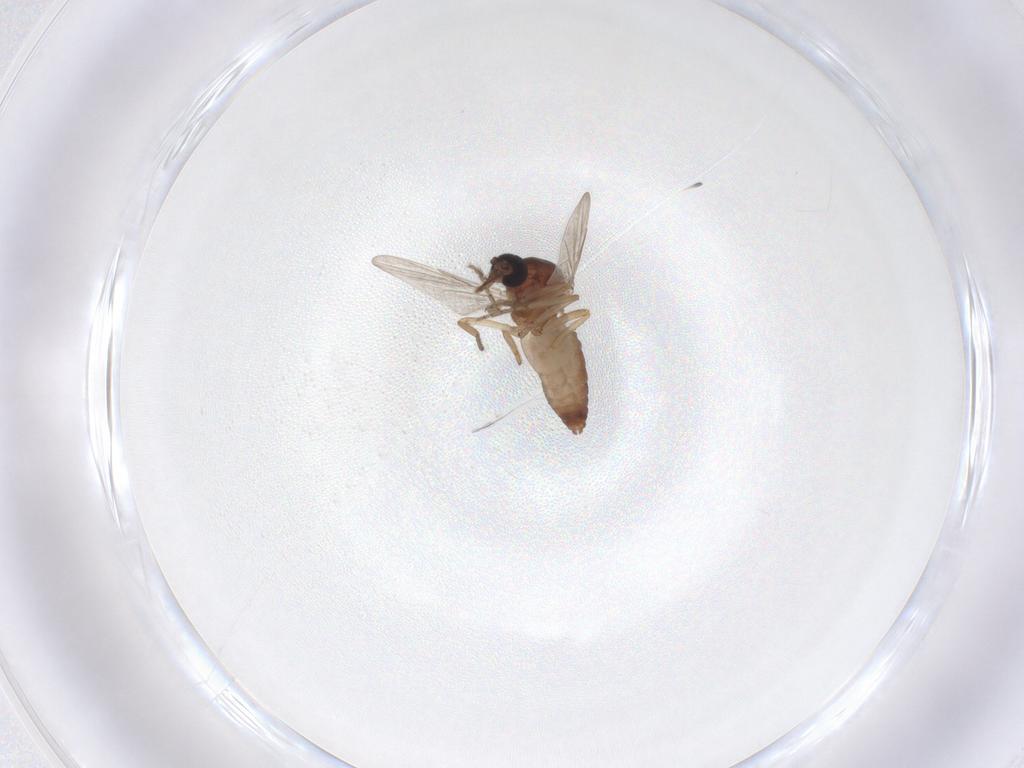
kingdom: Animalia
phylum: Arthropoda
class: Insecta
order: Diptera
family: Ceratopogonidae
